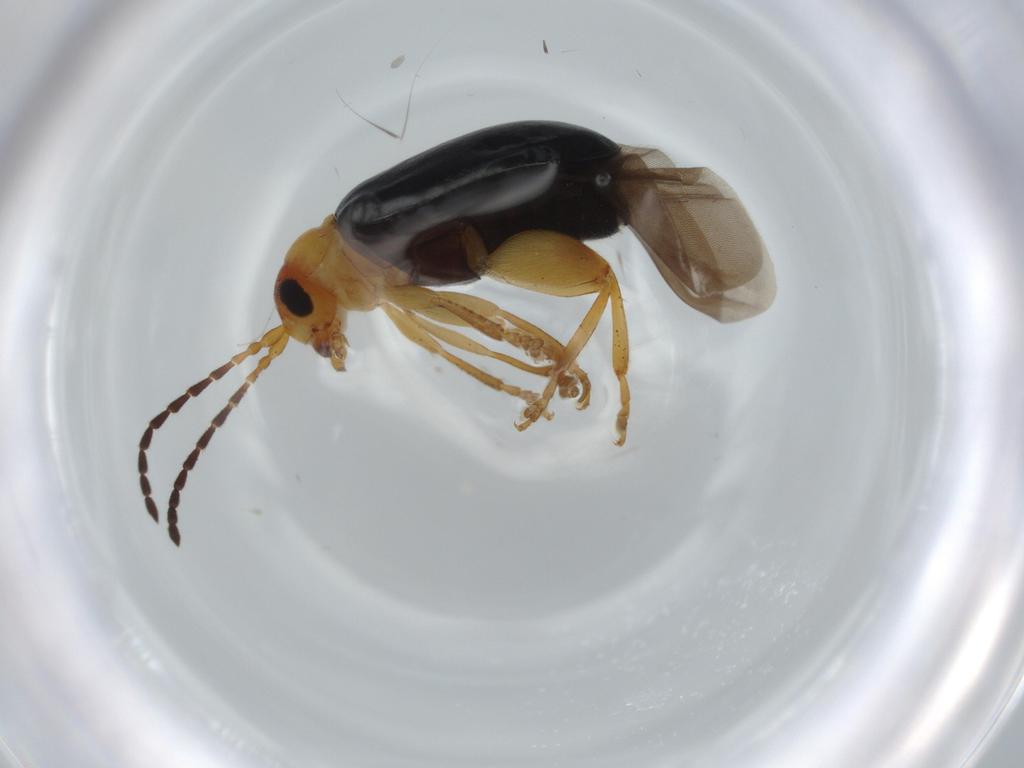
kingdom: Animalia
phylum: Arthropoda
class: Insecta
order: Coleoptera
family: Chrysomelidae
